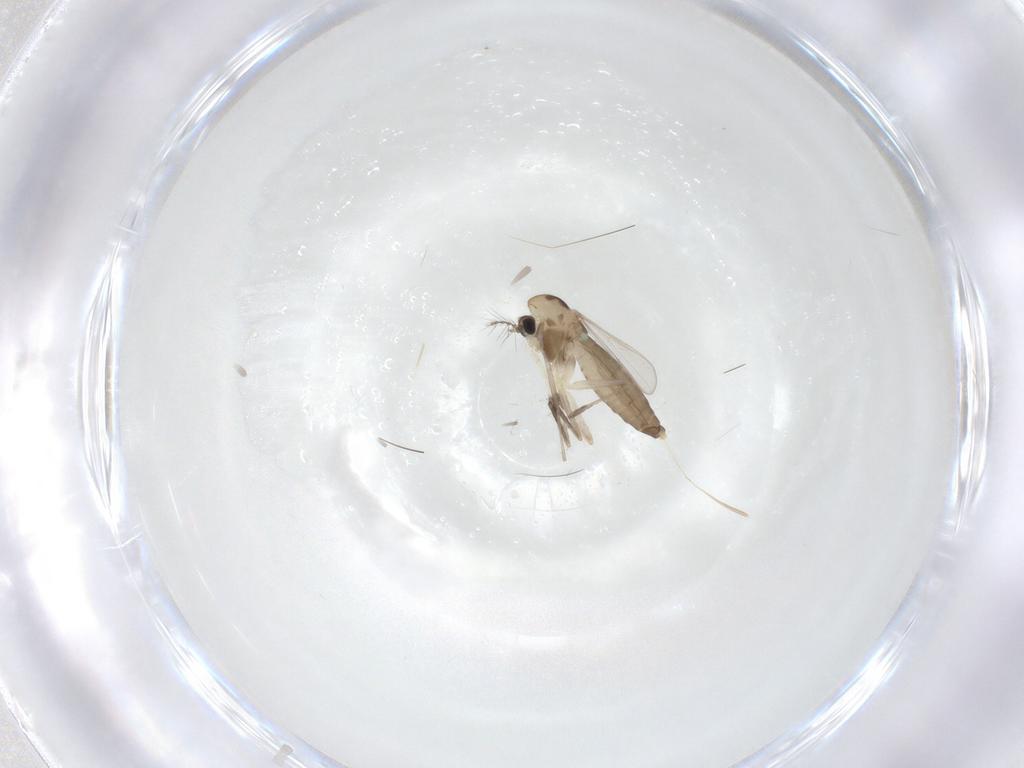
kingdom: Animalia
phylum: Arthropoda
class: Insecta
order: Diptera
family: Chironomidae
